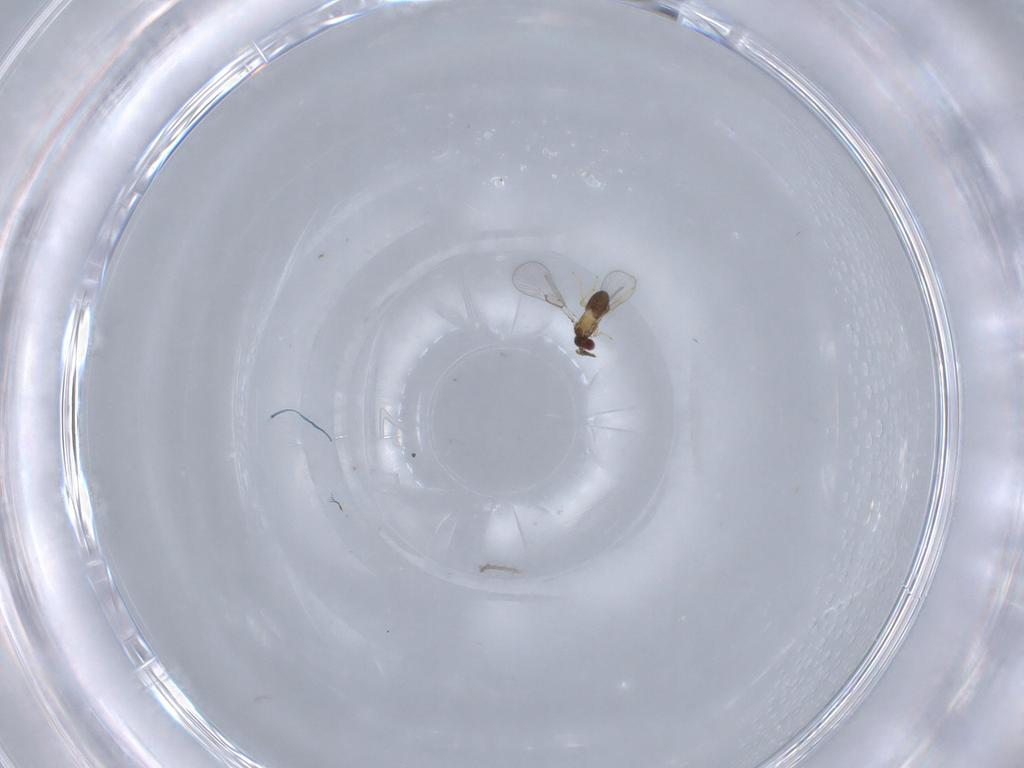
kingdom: Animalia
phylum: Arthropoda
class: Insecta
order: Hymenoptera
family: Trichogrammatidae
